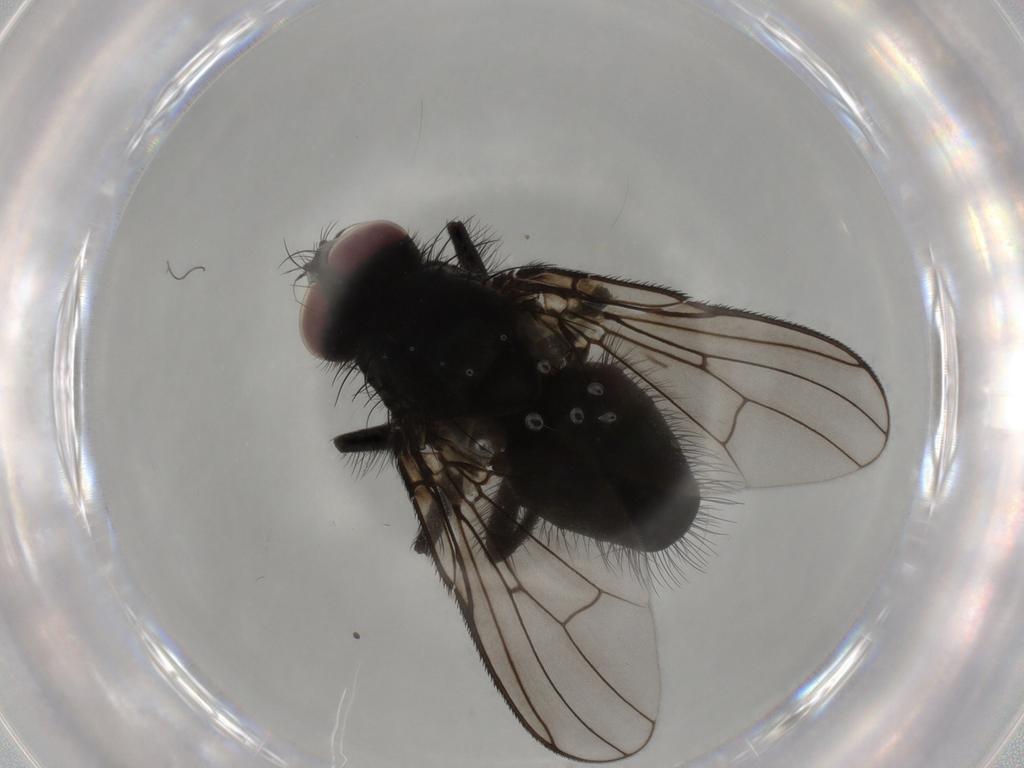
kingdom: Animalia
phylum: Arthropoda
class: Insecta
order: Diptera
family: Muscidae
